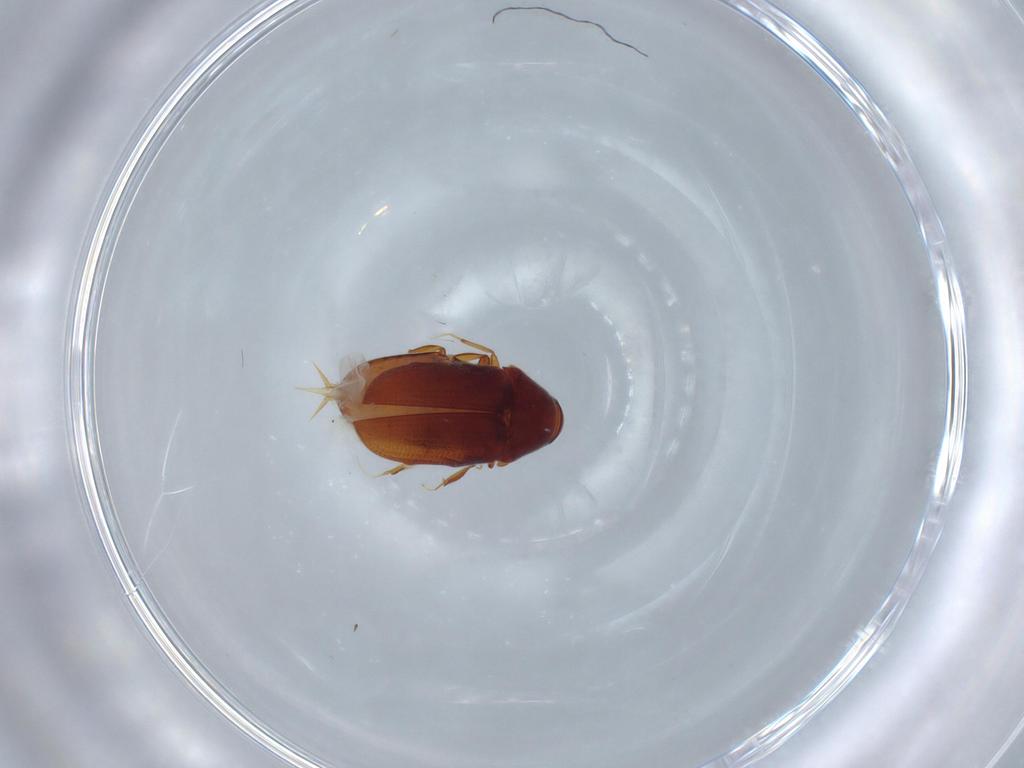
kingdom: Animalia
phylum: Arthropoda
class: Insecta
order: Coleoptera
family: Throscidae
